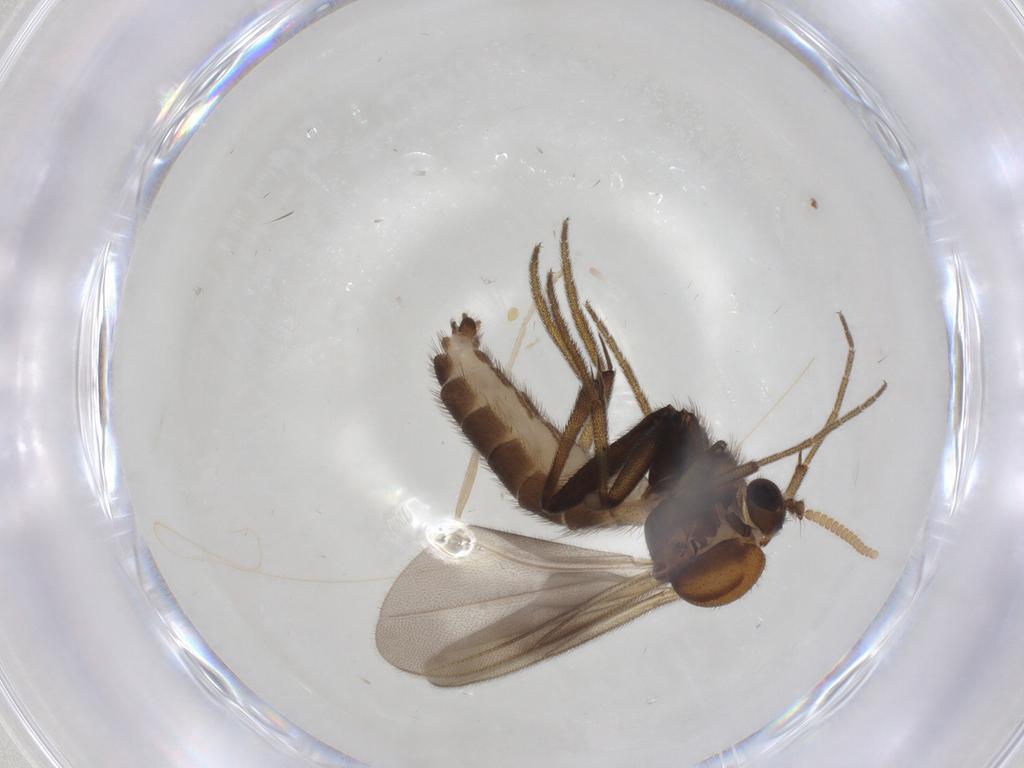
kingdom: Animalia
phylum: Arthropoda
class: Insecta
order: Diptera
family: Mycetophilidae
